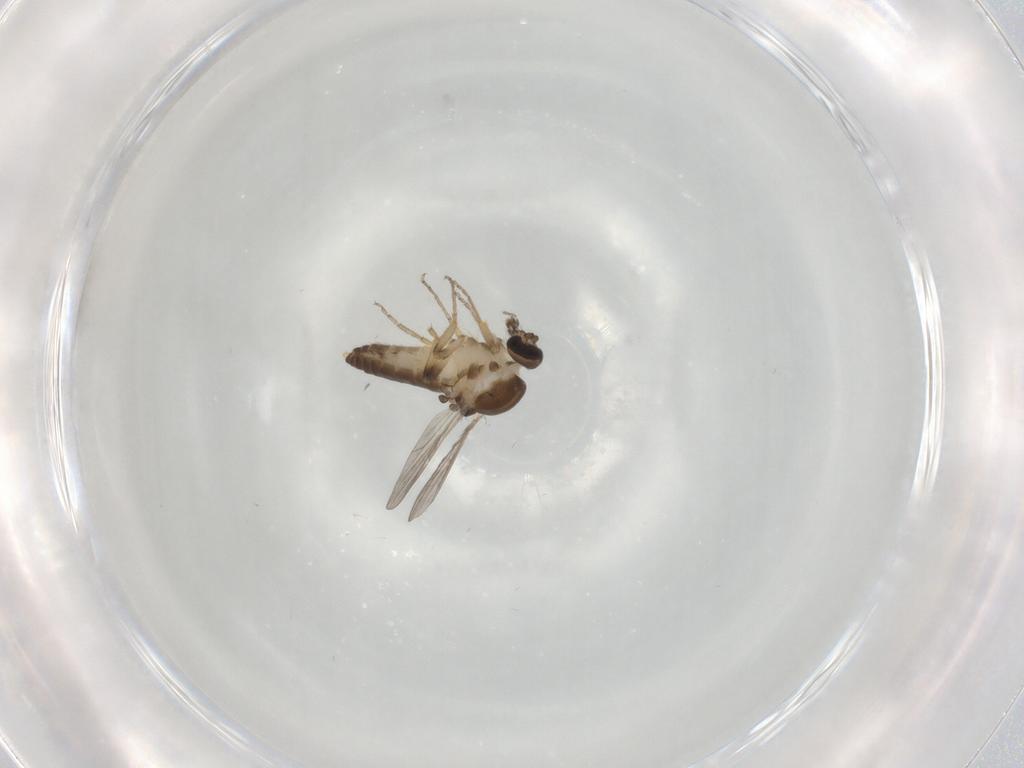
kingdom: Animalia
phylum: Arthropoda
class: Insecta
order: Diptera
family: Ceratopogonidae
